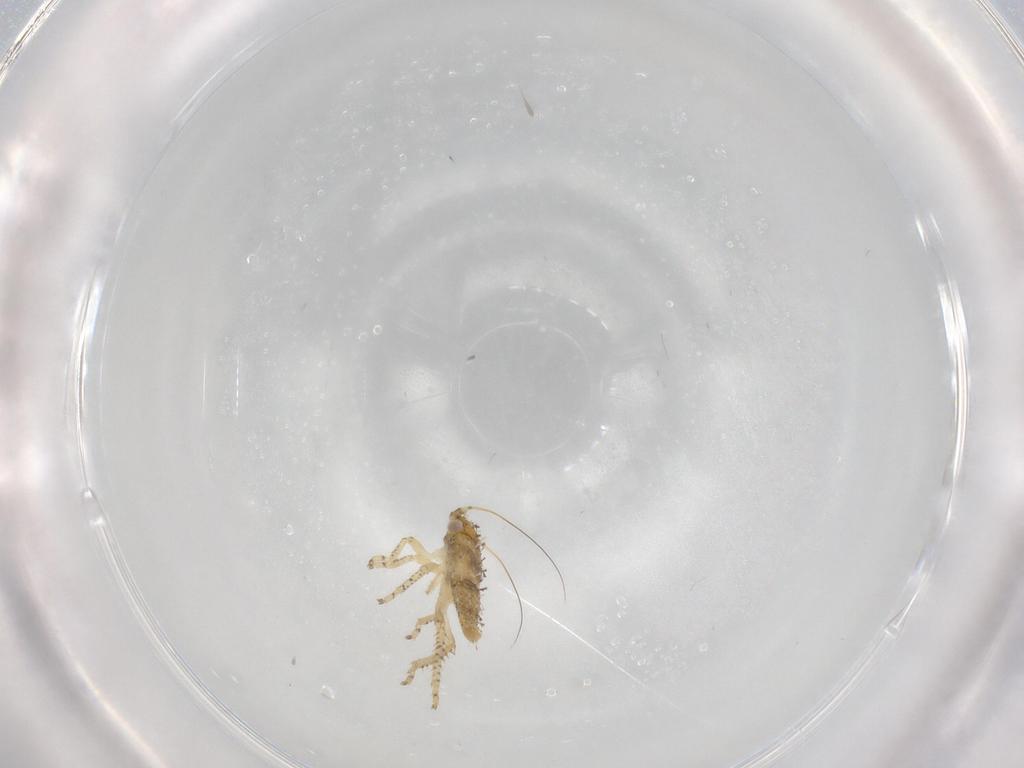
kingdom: Animalia
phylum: Arthropoda
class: Insecta
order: Hemiptera
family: Cicadellidae
